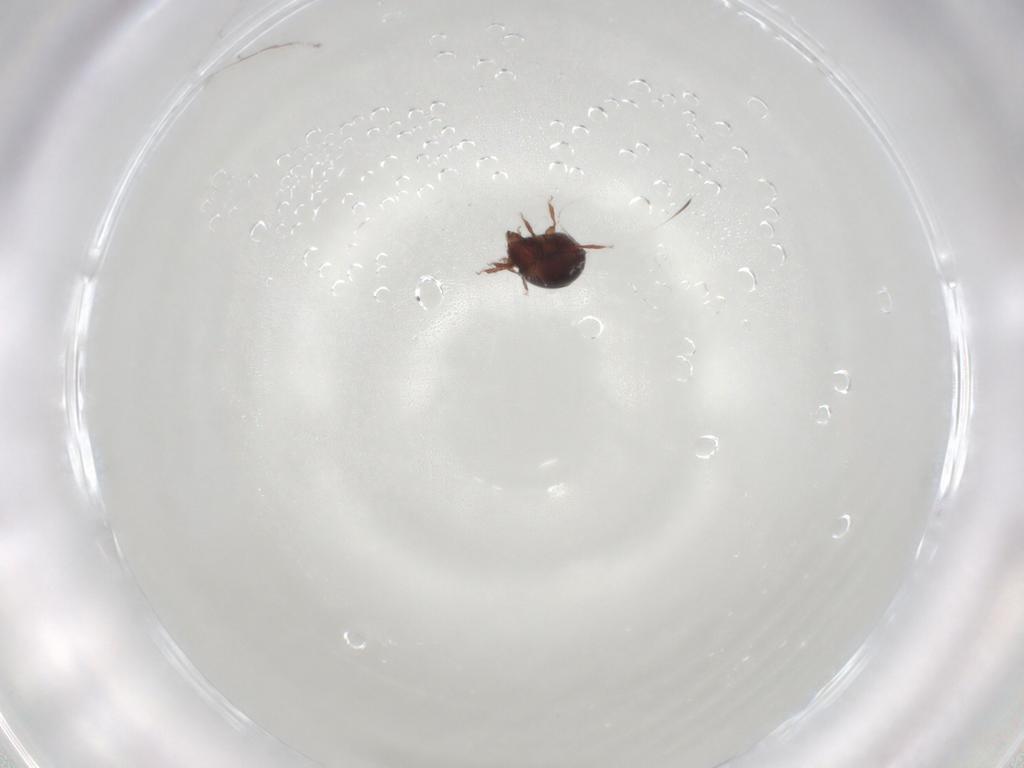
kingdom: Animalia
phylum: Arthropoda
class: Arachnida
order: Sarcoptiformes
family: Humerobatidae
